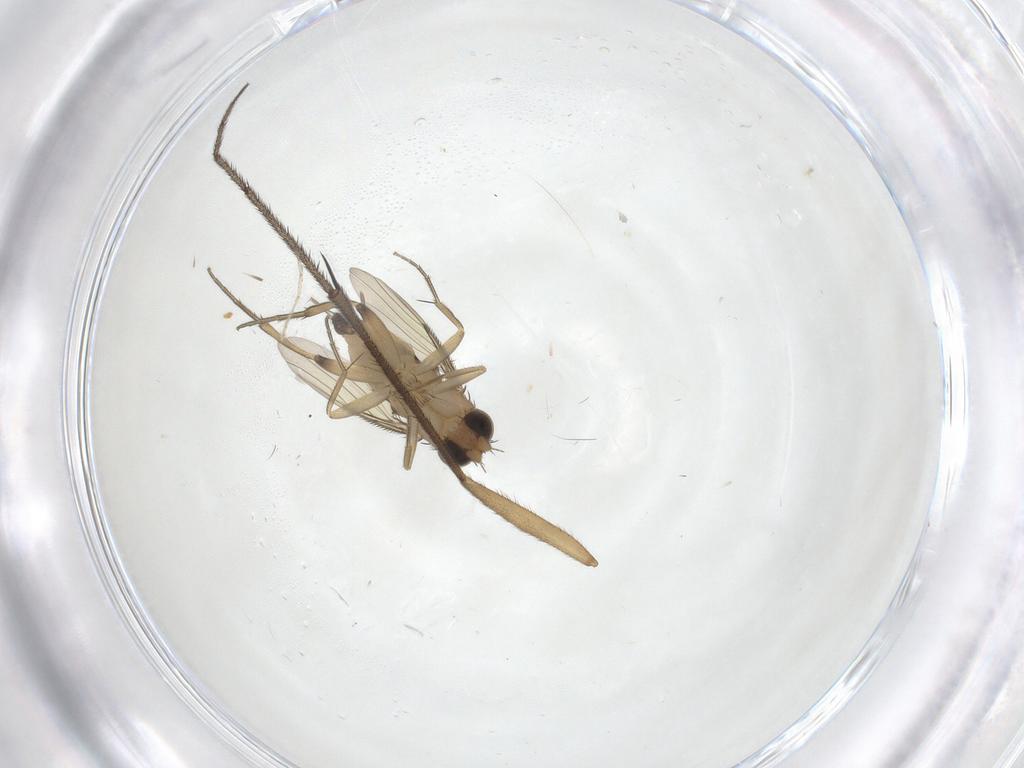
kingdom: Animalia
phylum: Arthropoda
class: Insecta
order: Diptera
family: Ditomyiidae
